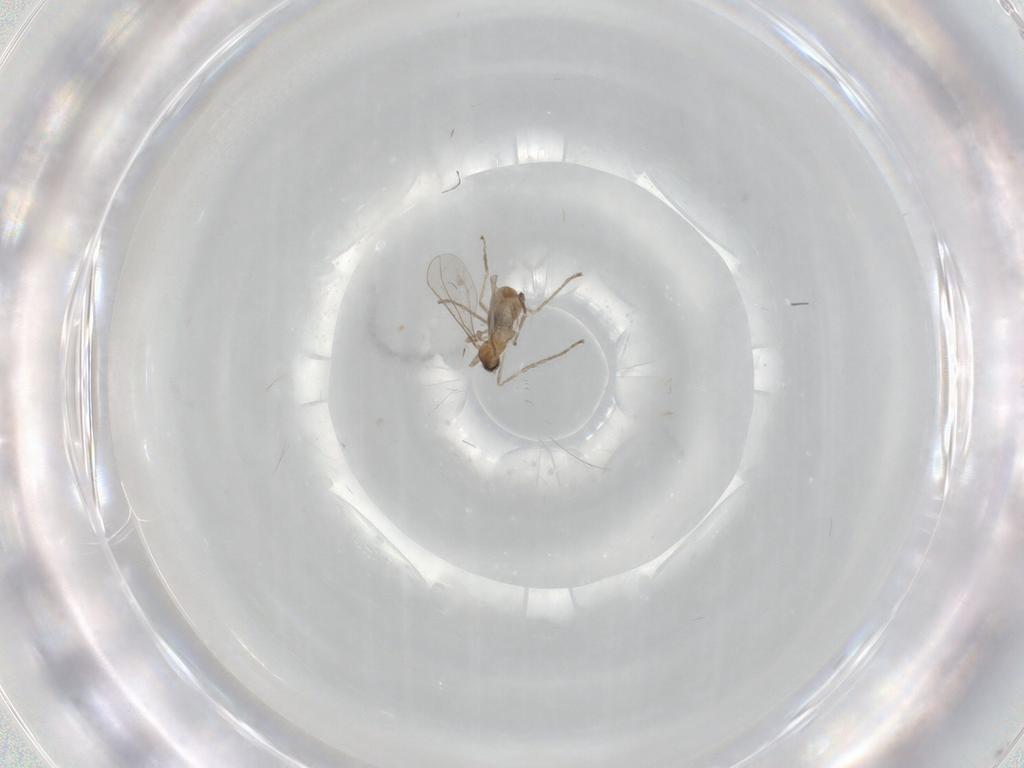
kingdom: Animalia
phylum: Arthropoda
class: Insecta
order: Diptera
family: Cecidomyiidae
